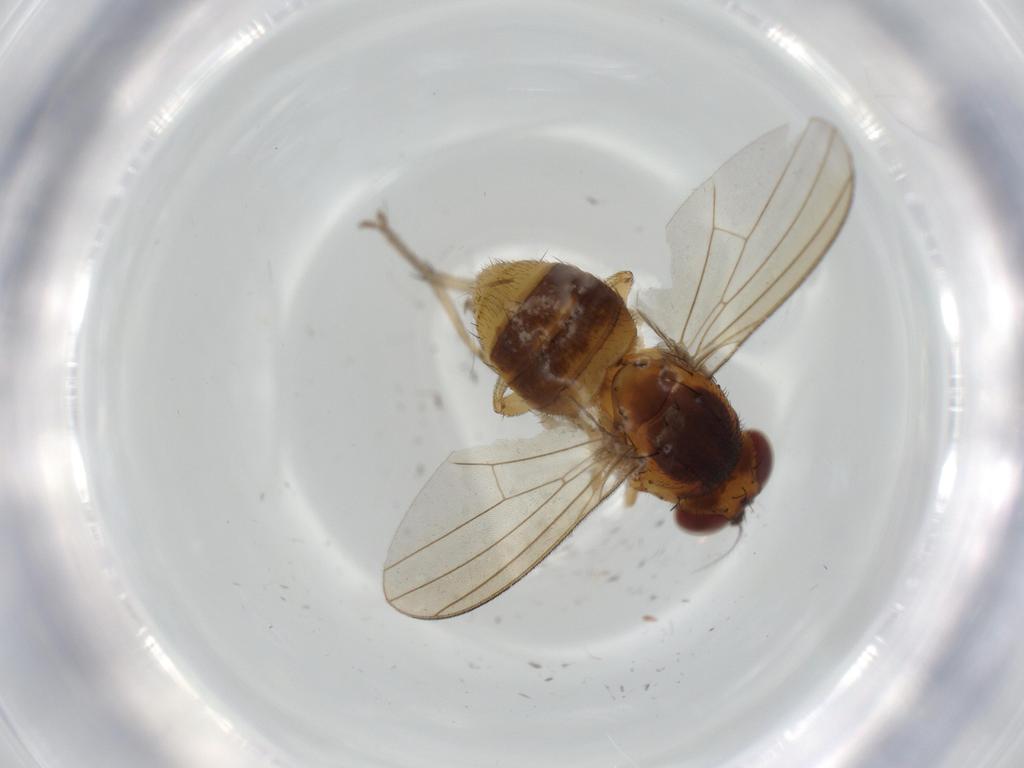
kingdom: Animalia
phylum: Arthropoda
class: Insecta
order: Diptera
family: Lauxaniidae
